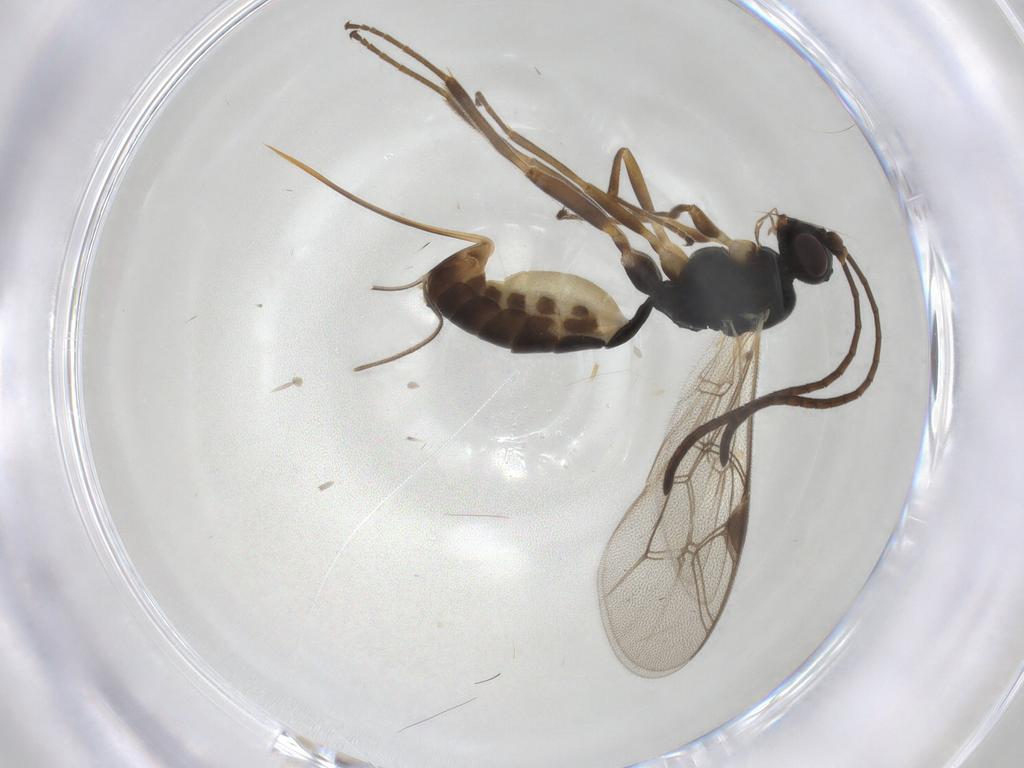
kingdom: Animalia
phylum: Arthropoda
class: Insecta
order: Hymenoptera
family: Ichneumonidae
